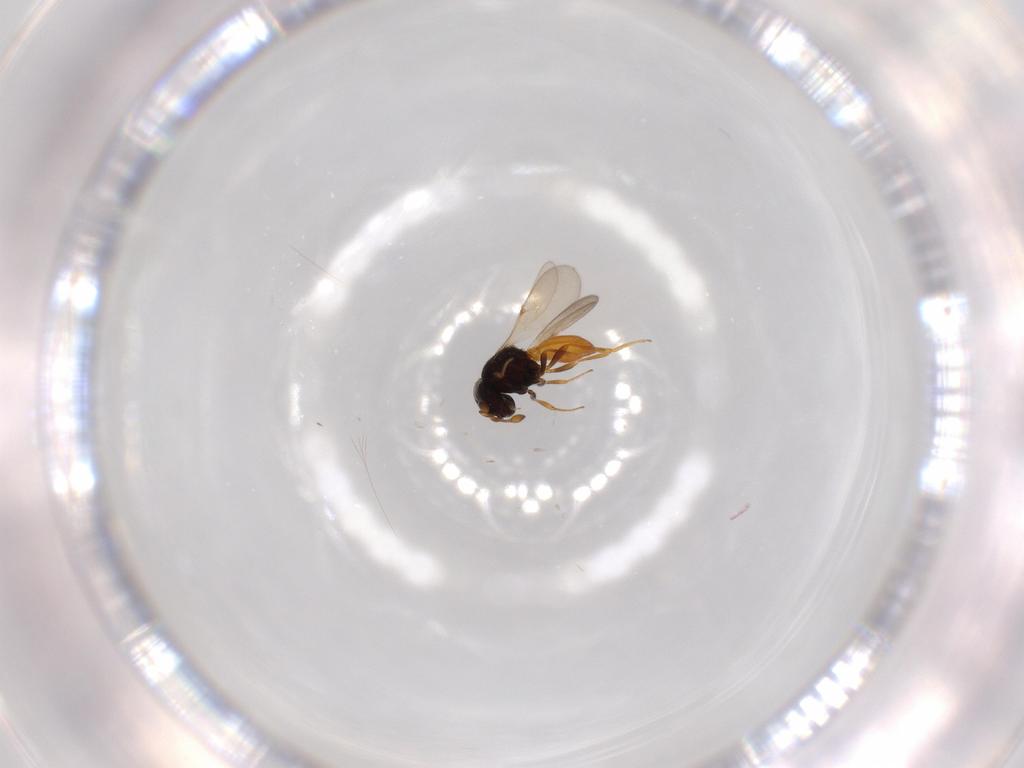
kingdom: Animalia
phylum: Arthropoda
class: Insecta
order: Hymenoptera
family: Scelionidae
